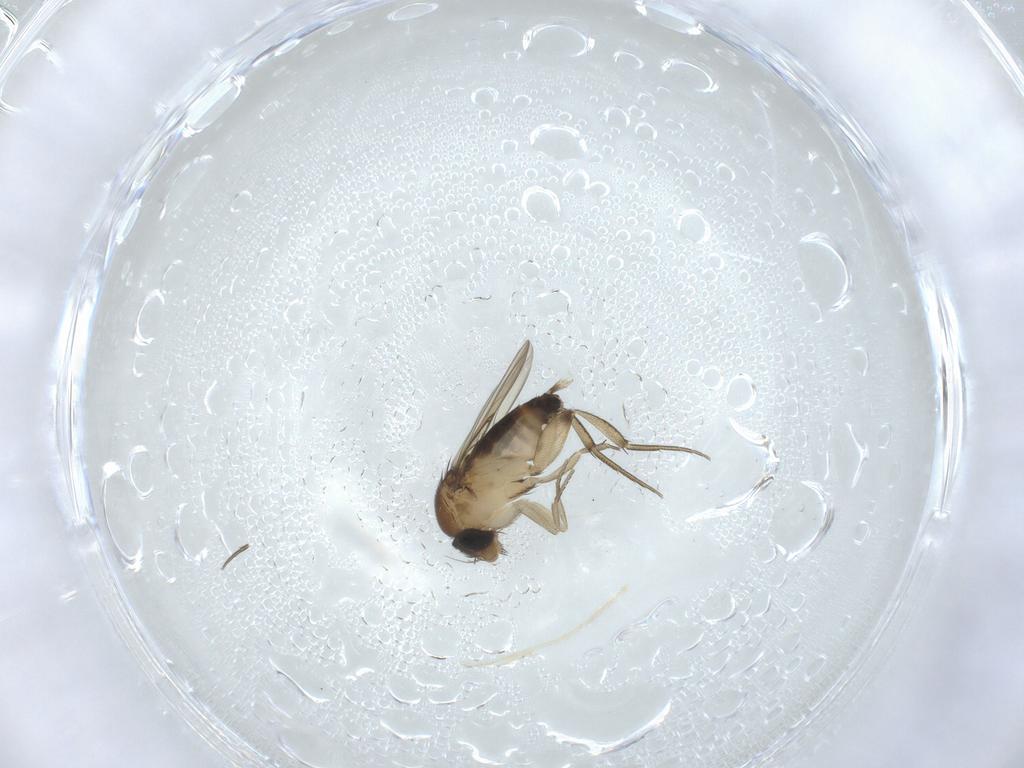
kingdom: Animalia
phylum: Arthropoda
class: Insecta
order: Diptera
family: Phoridae
